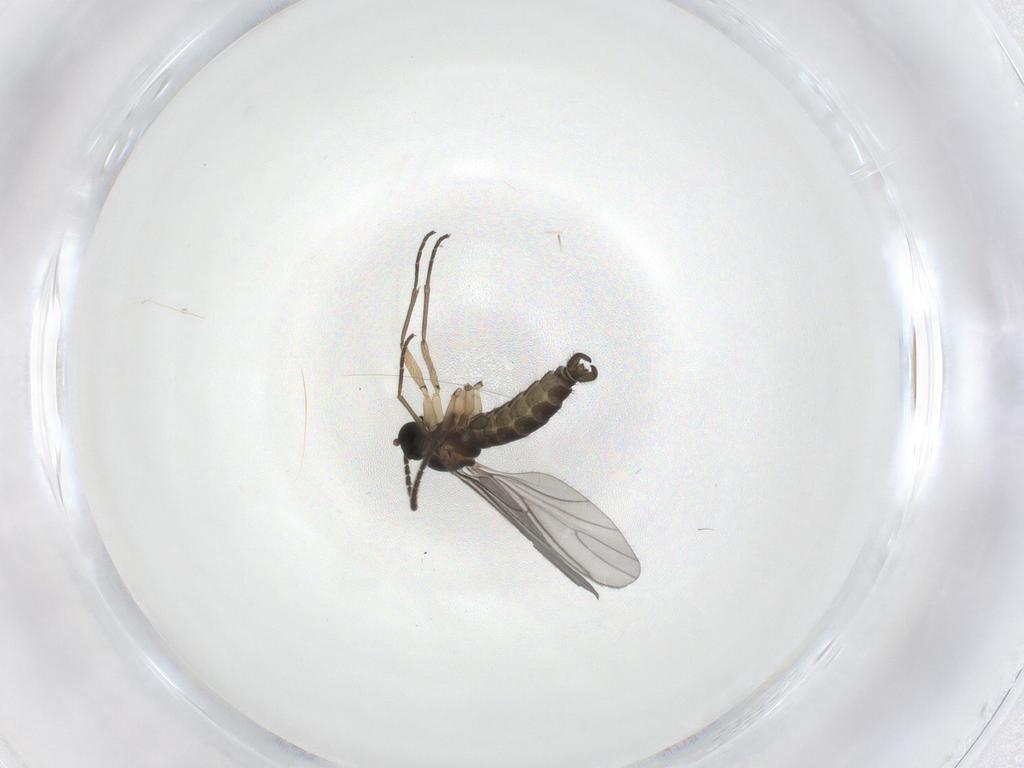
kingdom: Animalia
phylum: Arthropoda
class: Insecta
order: Diptera
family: Sciaridae
